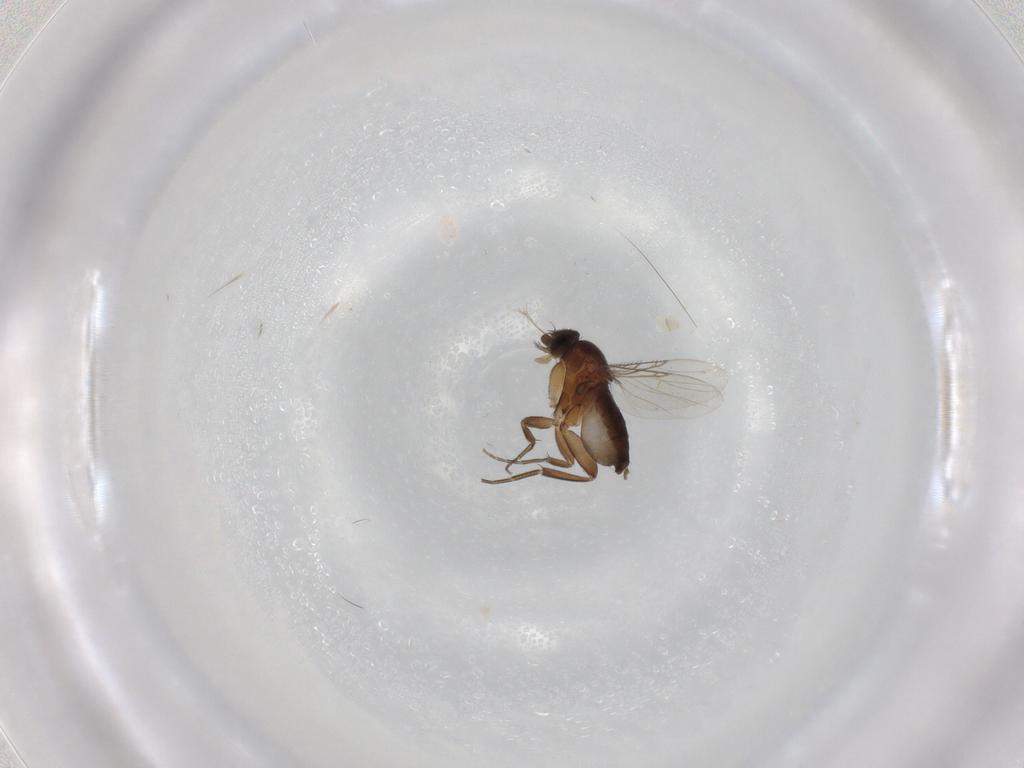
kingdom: Animalia
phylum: Arthropoda
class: Insecta
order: Diptera
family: Phoridae
